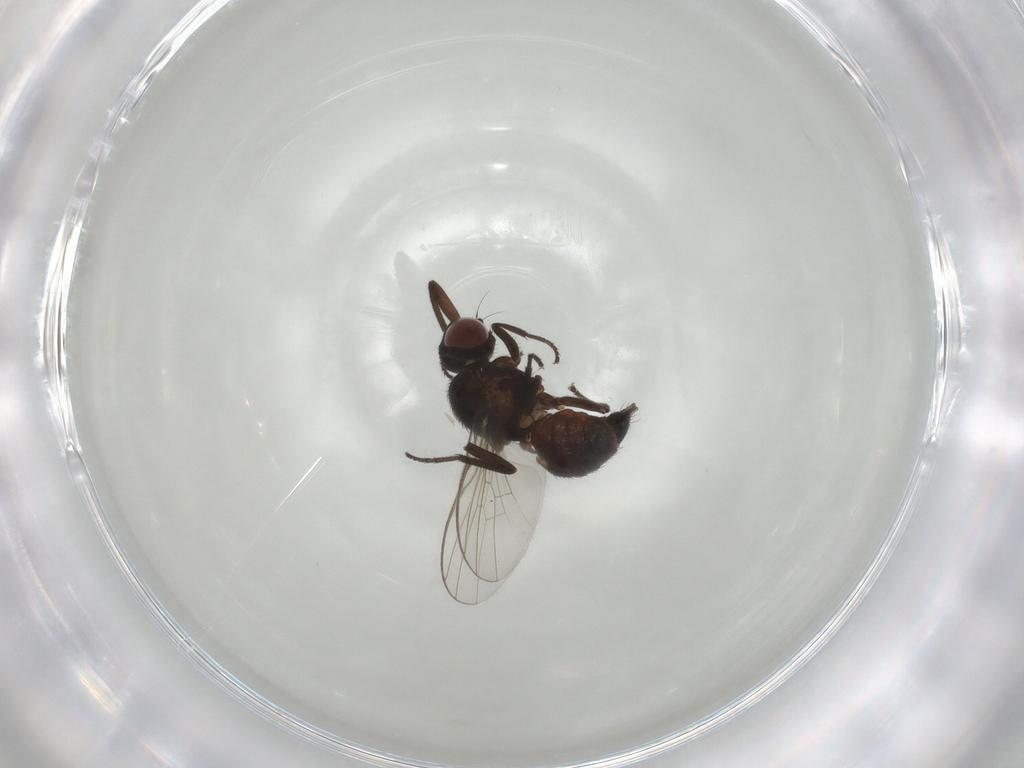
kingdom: Animalia
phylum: Arthropoda
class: Insecta
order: Diptera
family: Agromyzidae
